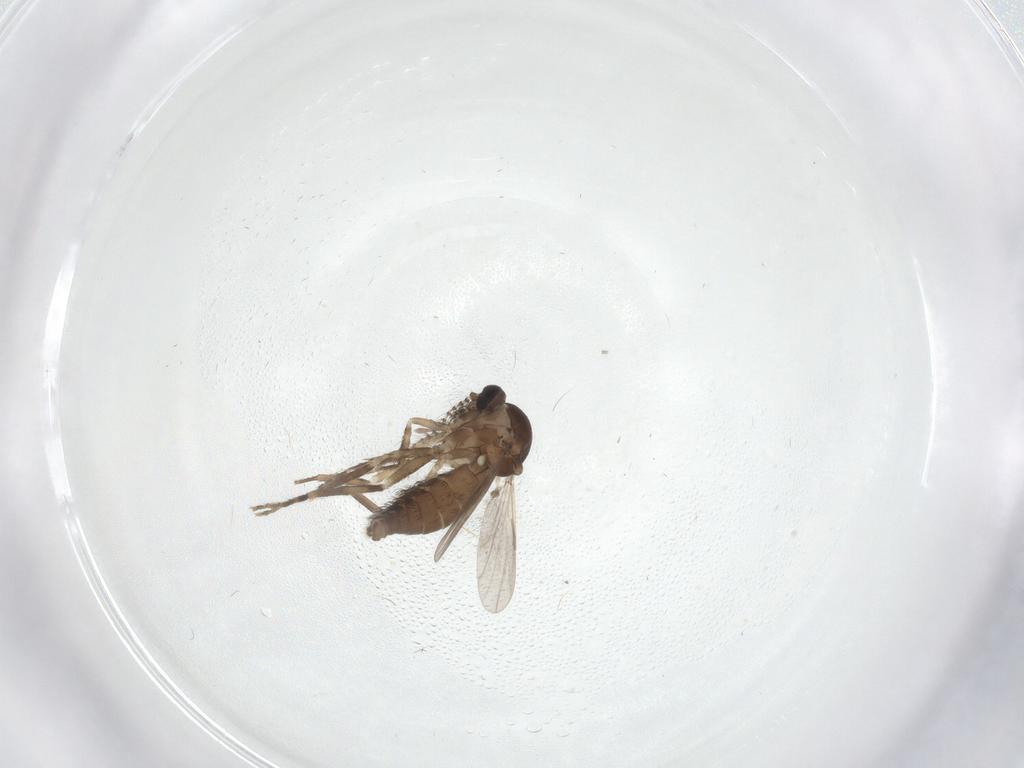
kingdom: Animalia
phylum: Arthropoda
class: Insecta
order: Diptera
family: Ceratopogonidae
